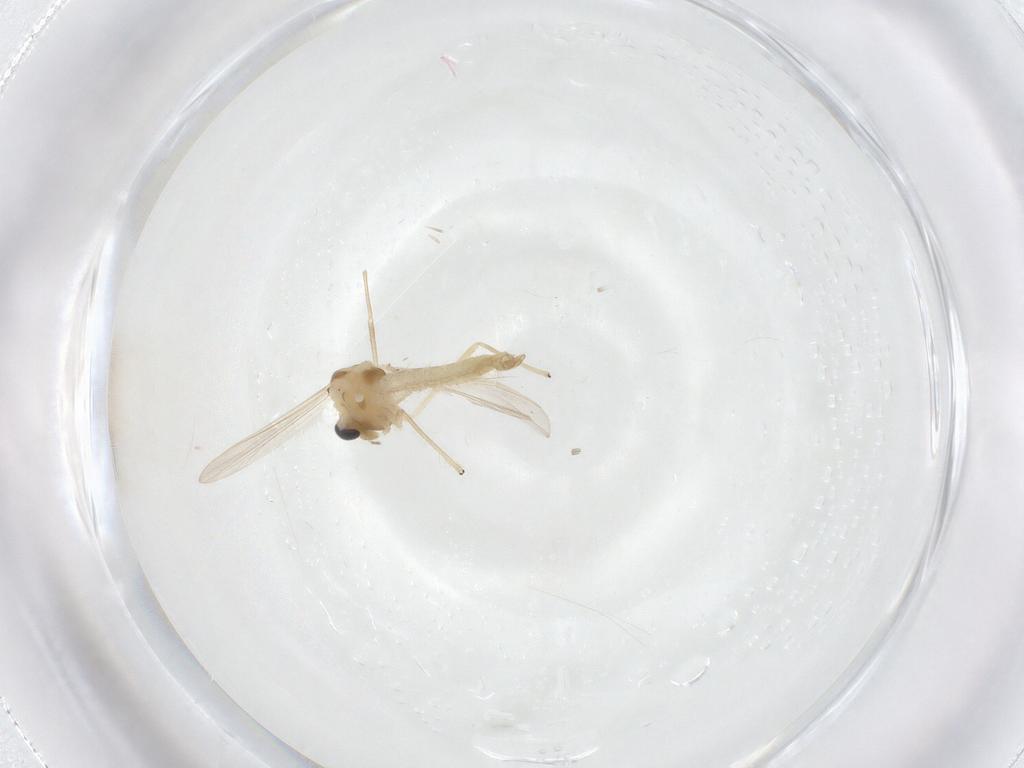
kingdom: Animalia
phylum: Arthropoda
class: Insecta
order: Diptera
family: Chironomidae
